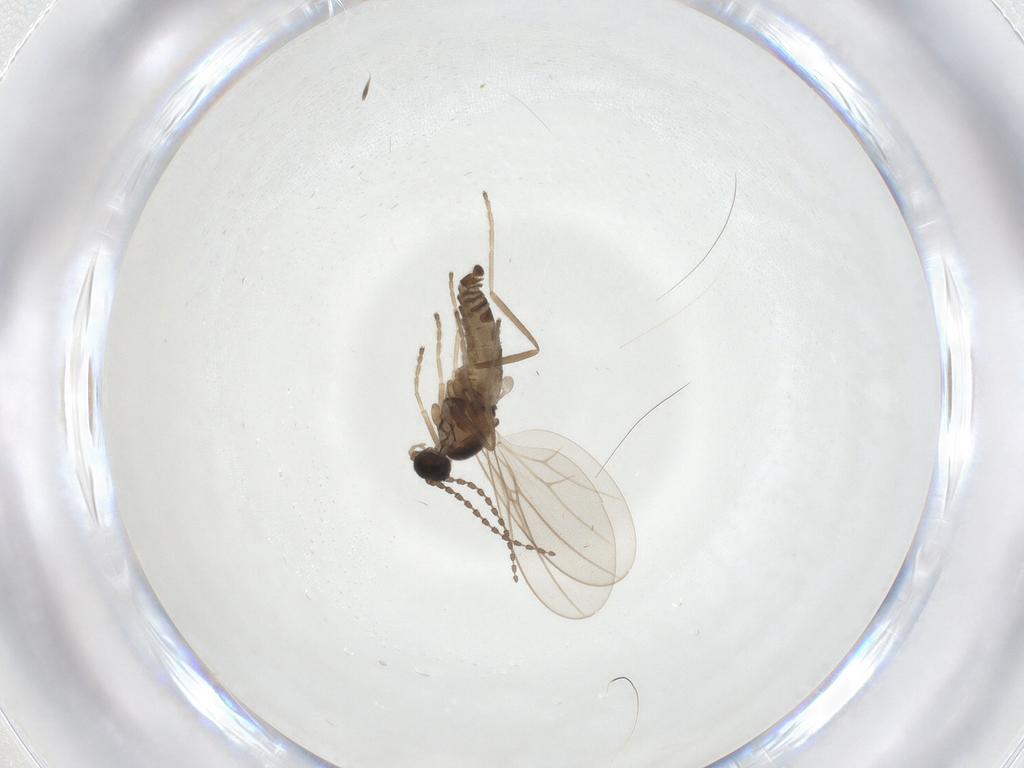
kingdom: Animalia
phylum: Arthropoda
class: Insecta
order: Diptera
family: Cecidomyiidae
